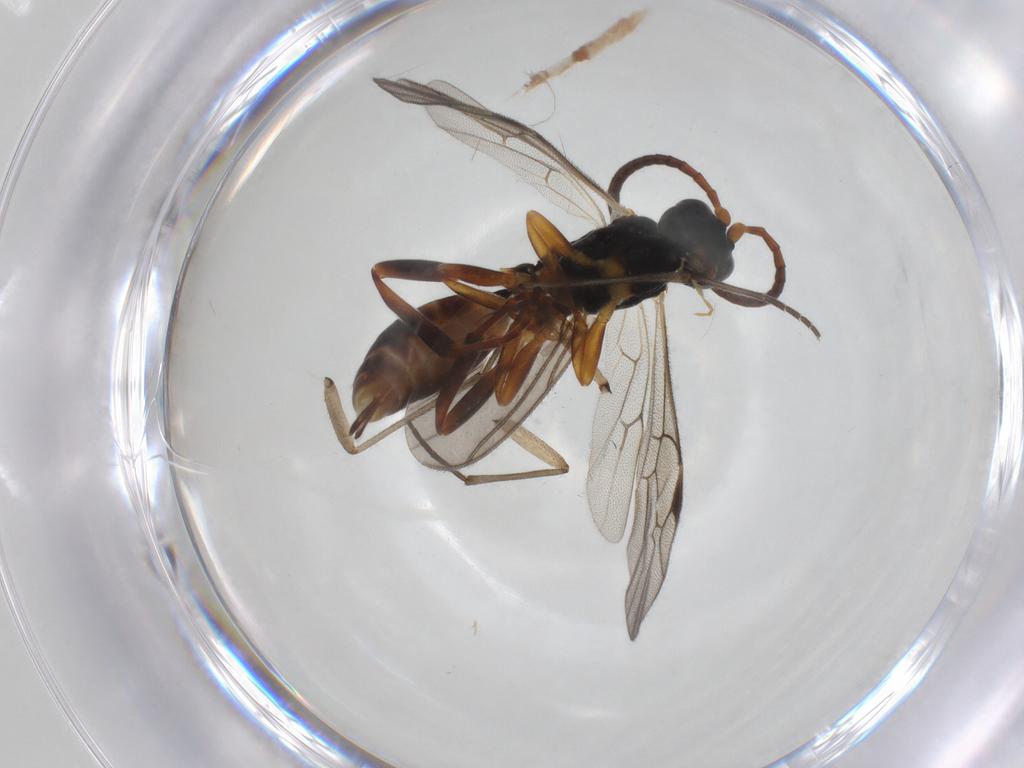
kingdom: Animalia
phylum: Arthropoda
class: Insecta
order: Hymenoptera
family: Ichneumonidae
